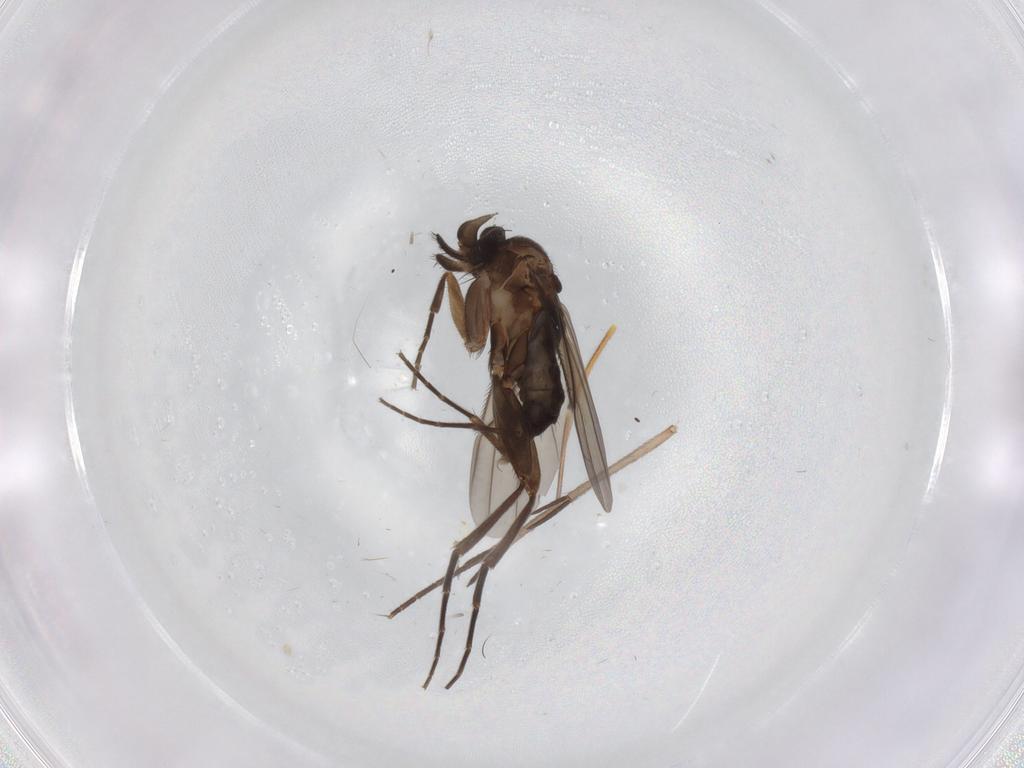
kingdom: Animalia
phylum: Arthropoda
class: Insecta
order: Diptera
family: Phoridae
